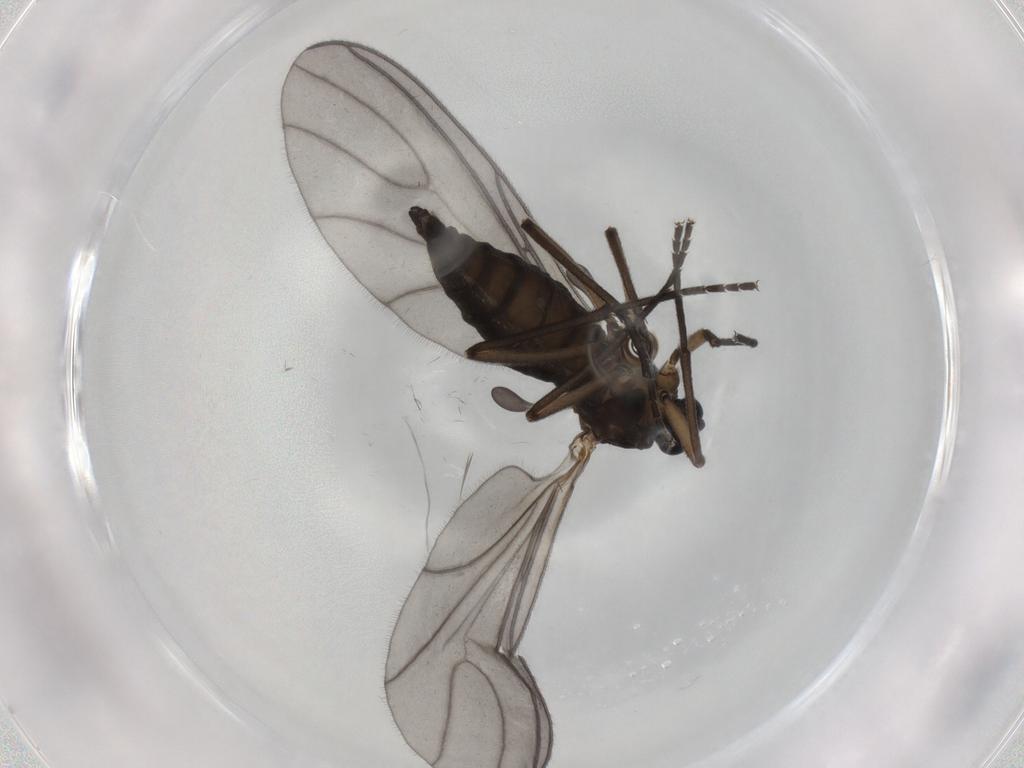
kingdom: Animalia
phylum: Arthropoda
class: Insecta
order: Diptera
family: Sciaridae
